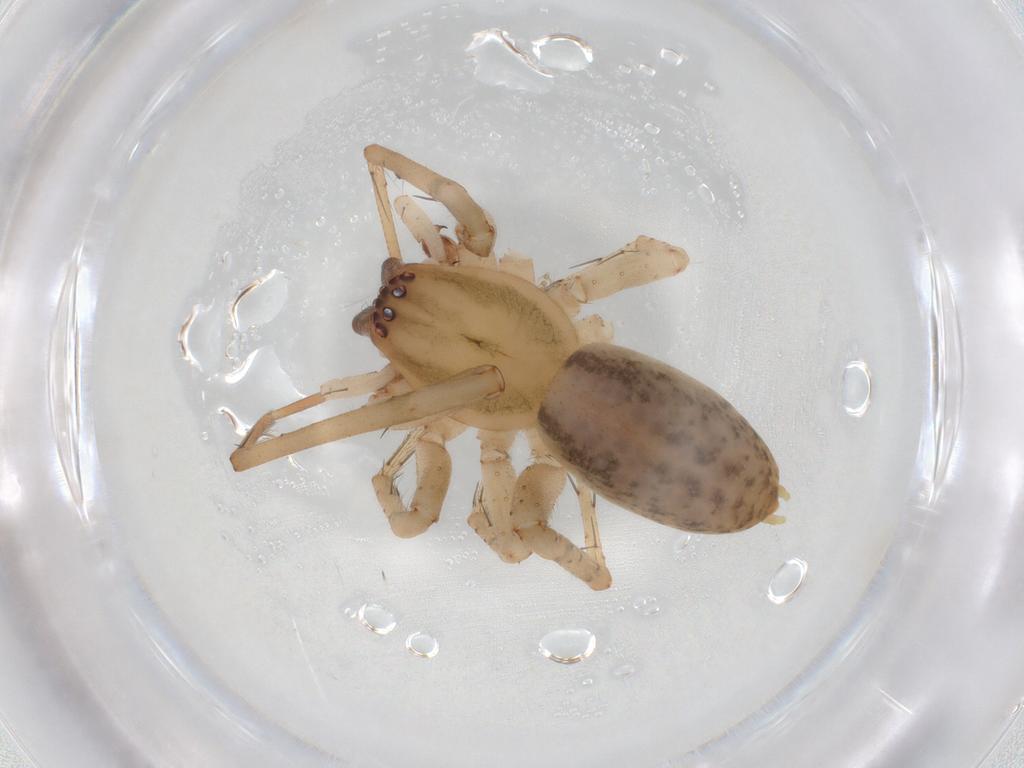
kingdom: Animalia
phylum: Arthropoda
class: Arachnida
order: Araneae
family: Anyphaenidae
